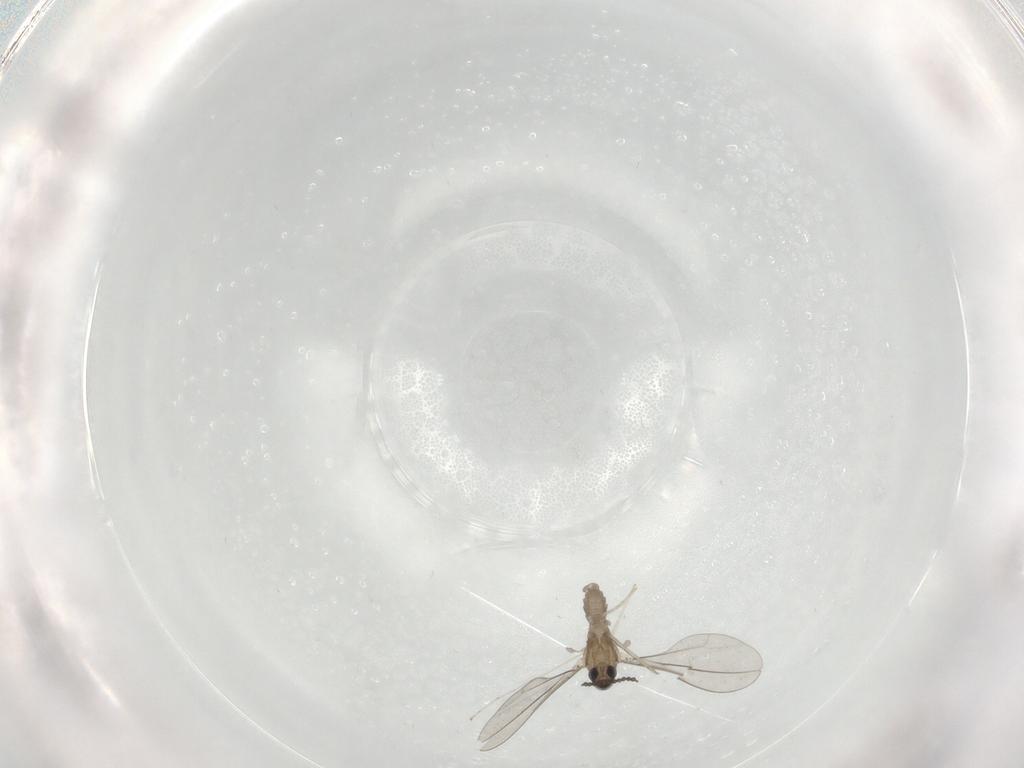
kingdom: Animalia
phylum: Arthropoda
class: Insecta
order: Diptera
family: Cecidomyiidae
